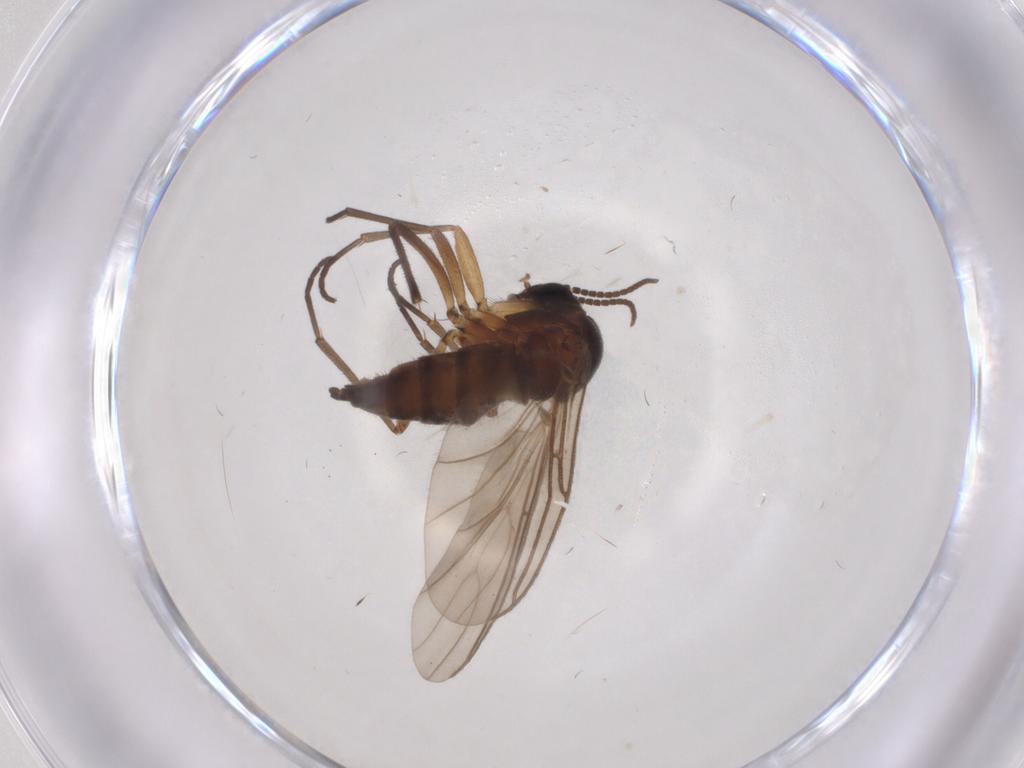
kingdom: Animalia
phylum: Arthropoda
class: Insecta
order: Diptera
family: Sciaridae
